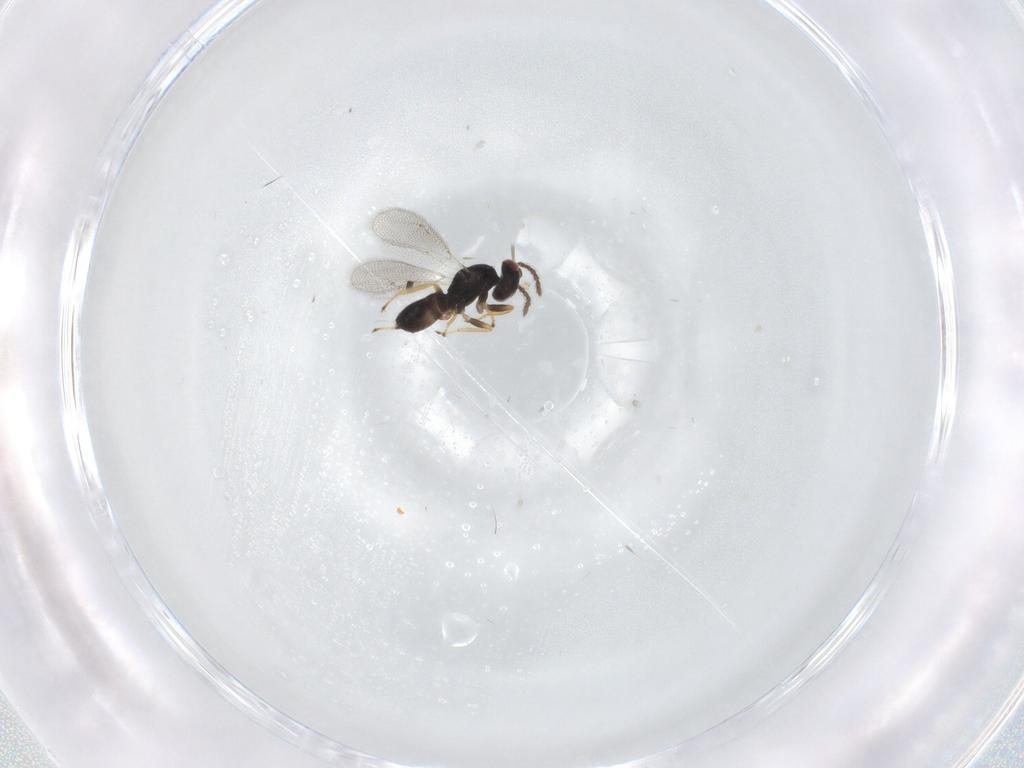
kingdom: Animalia
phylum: Arthropoda
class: Insecta
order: Hymenoptera
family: Eulophidae
